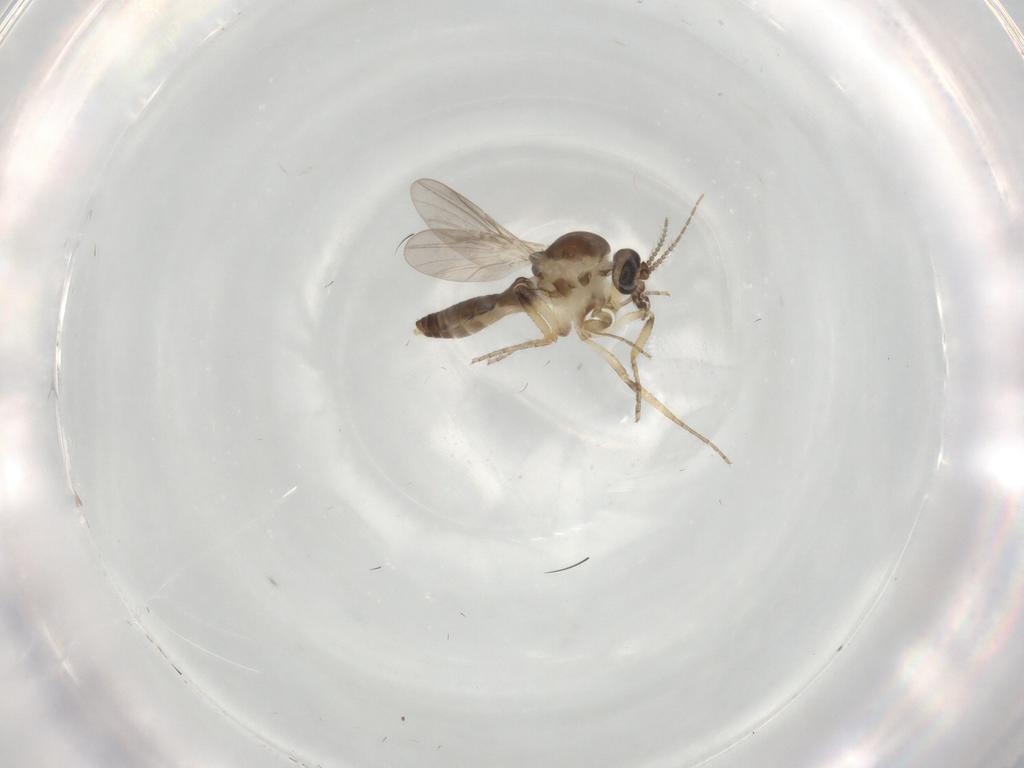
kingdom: Animalia
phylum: Arthropoda
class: Insecta
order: Diptera
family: Ceratopogonidae
